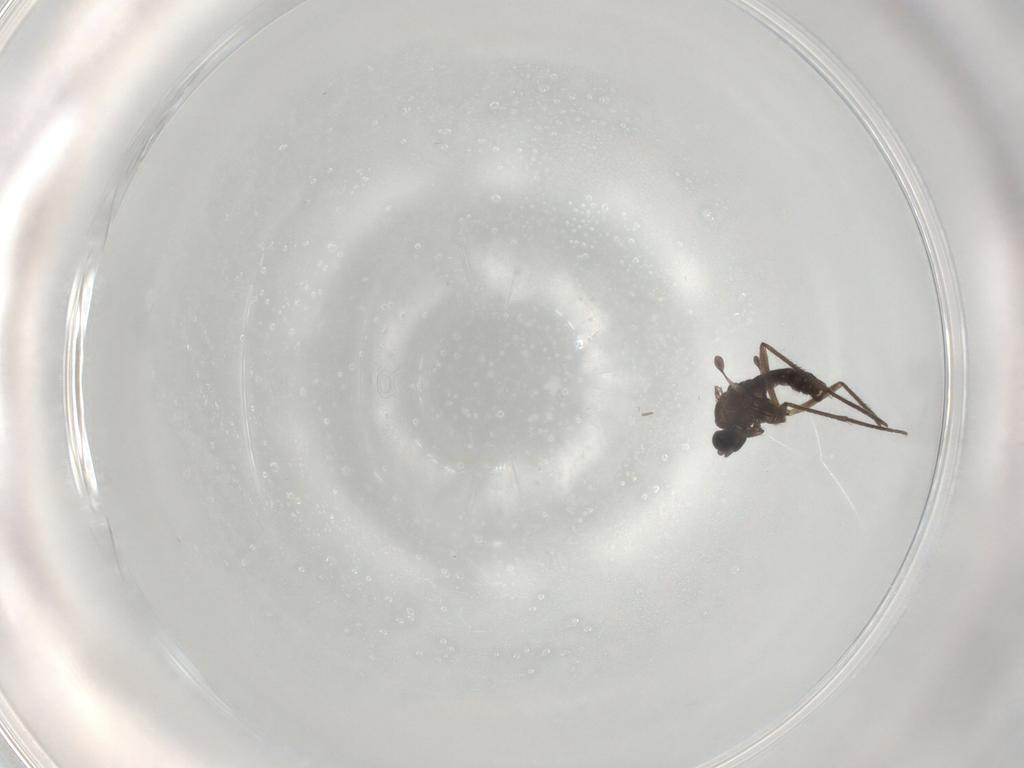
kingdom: Animalia
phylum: Arthropoda
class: Insecta
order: Diptera
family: Sciaridae
